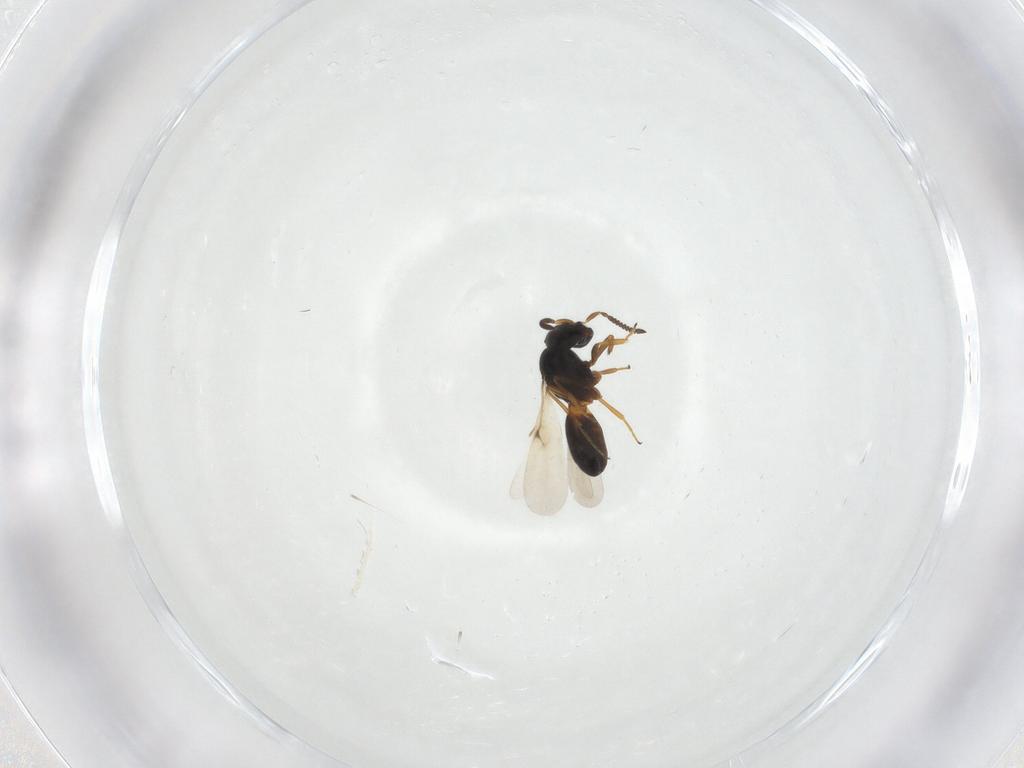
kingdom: Animalia
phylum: Arthropoda
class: Insecta
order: Hymenoptera
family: Scelionidae
